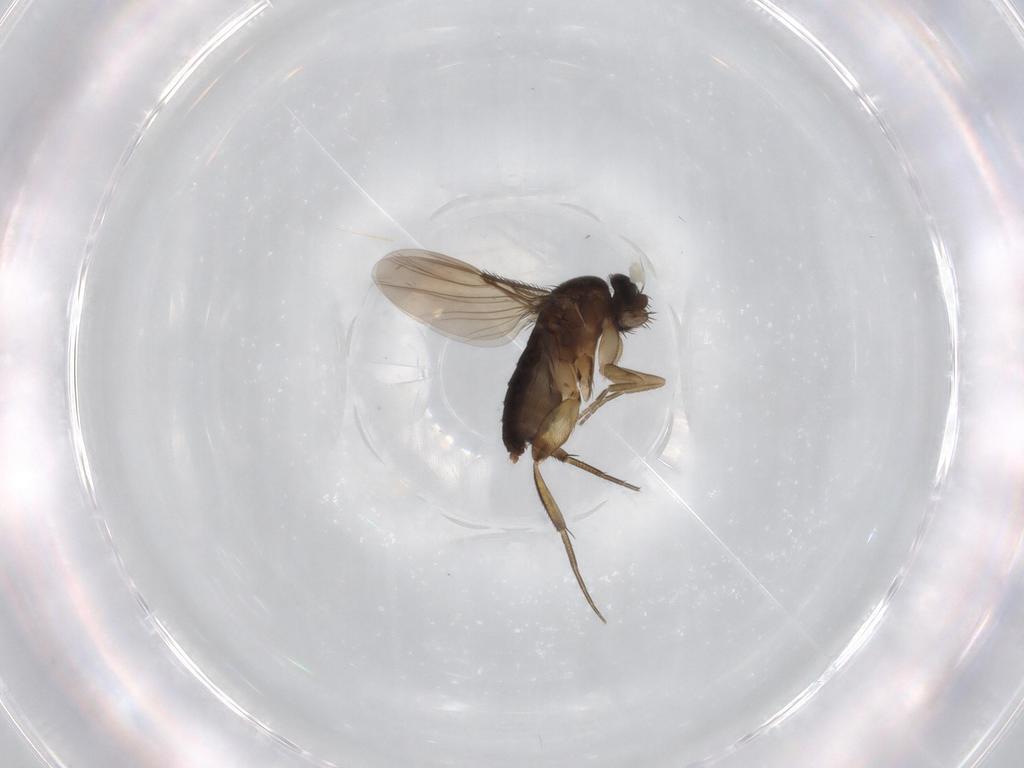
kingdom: Animalia
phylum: Arthropoda
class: Insecta
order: Diptera
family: Phoridae
